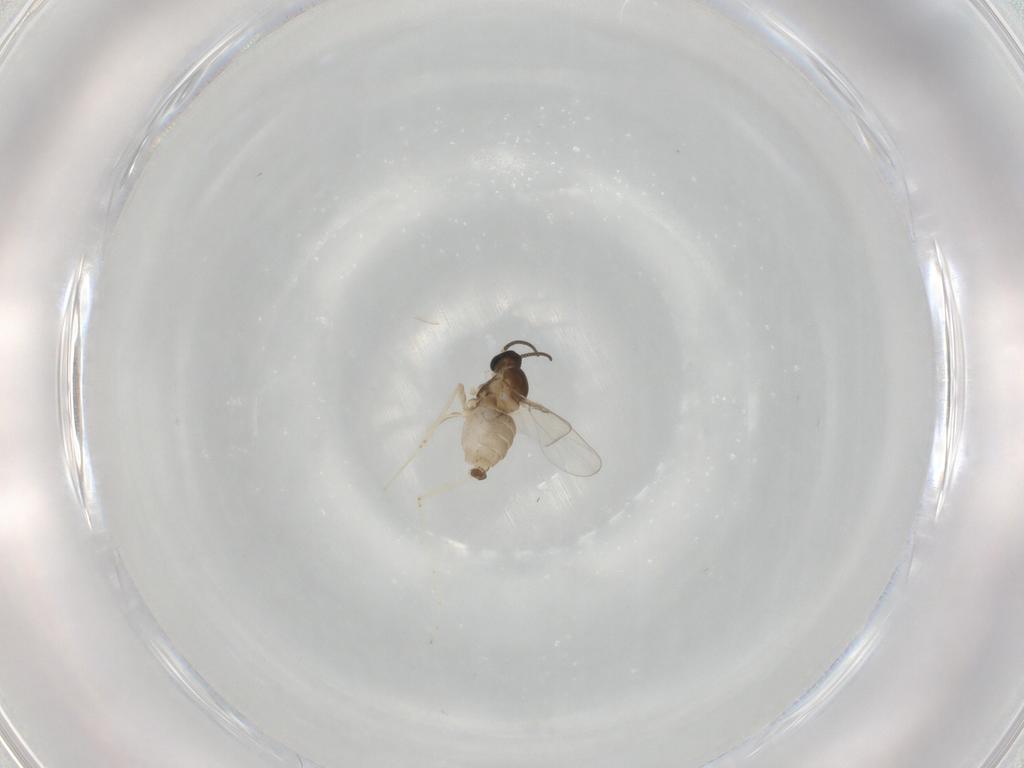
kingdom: Animalia
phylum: Arthropoda
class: Insecta
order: Diptera
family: Cecidomyiidae
